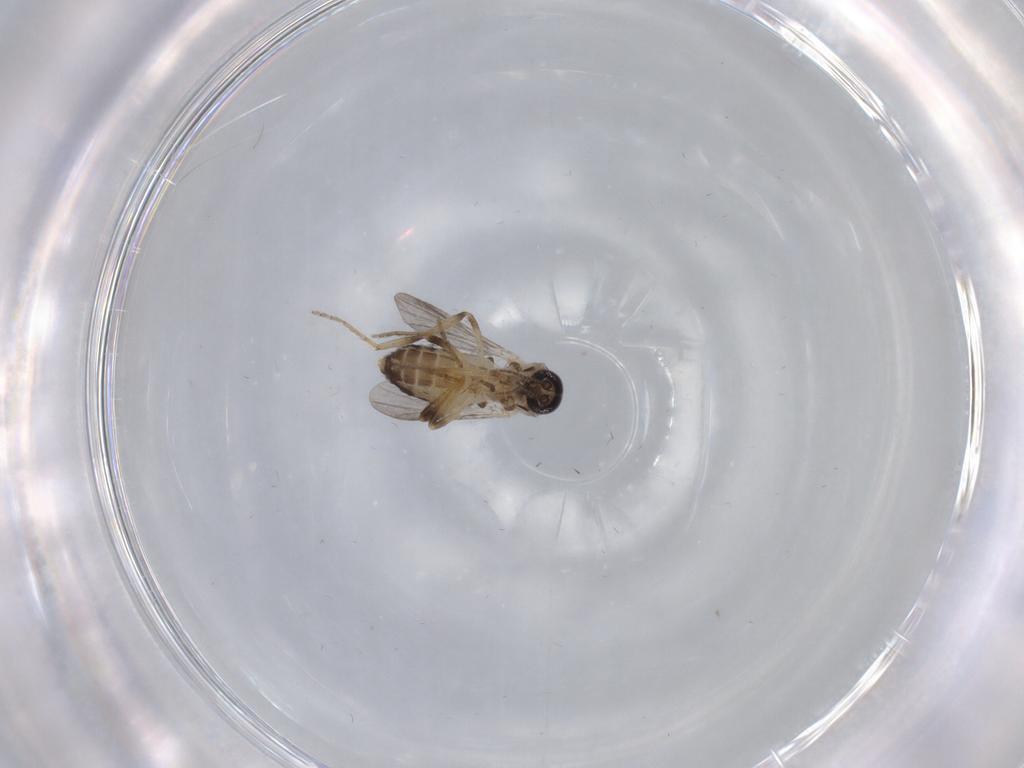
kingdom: Animalia
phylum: Arthropoda
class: Insecta
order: Diptera
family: Ceratopogonidae
